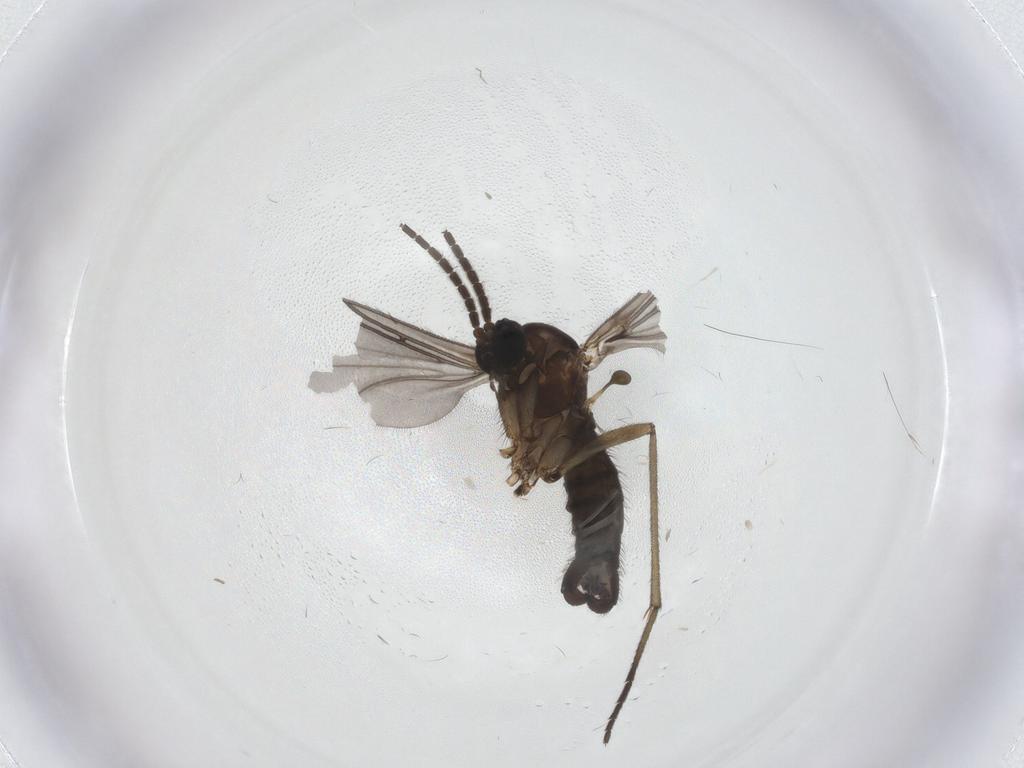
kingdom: Animalia
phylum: Arthropoda
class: Insecta
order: Diptera
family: Sciaridae
